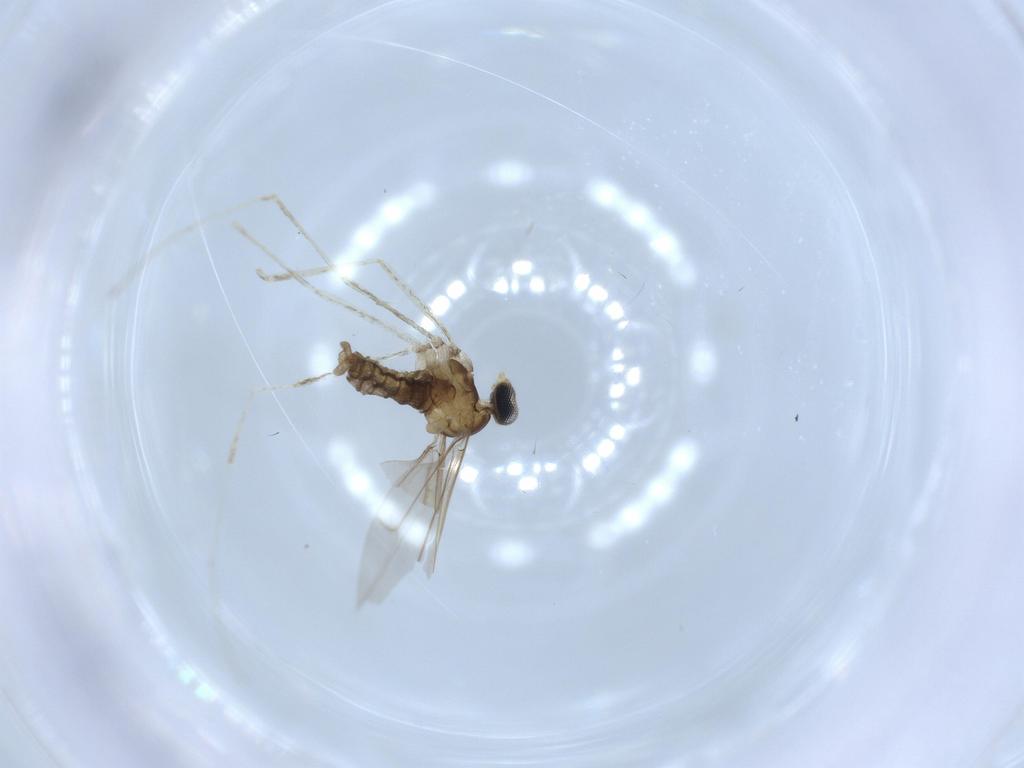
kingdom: Animalia
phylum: Arthropoda
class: Insecta
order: Diptera
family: Cecidomyiidae
